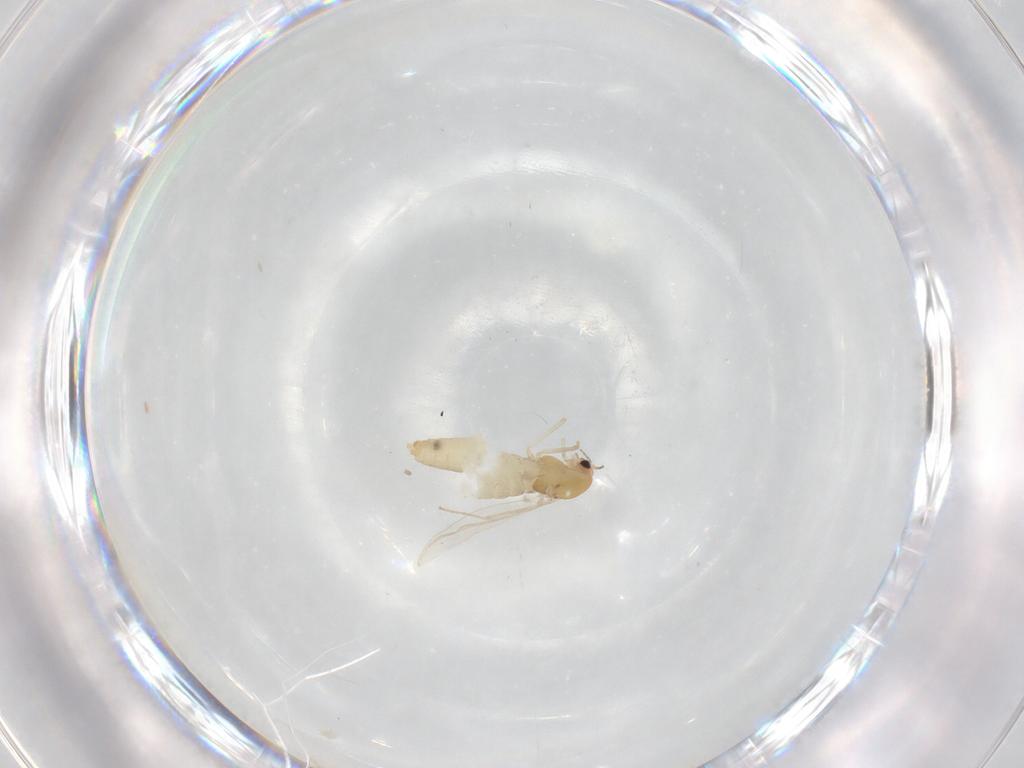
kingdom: Animalia
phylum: Arthropoda
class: Insecta
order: Diptera
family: Chironomidae
